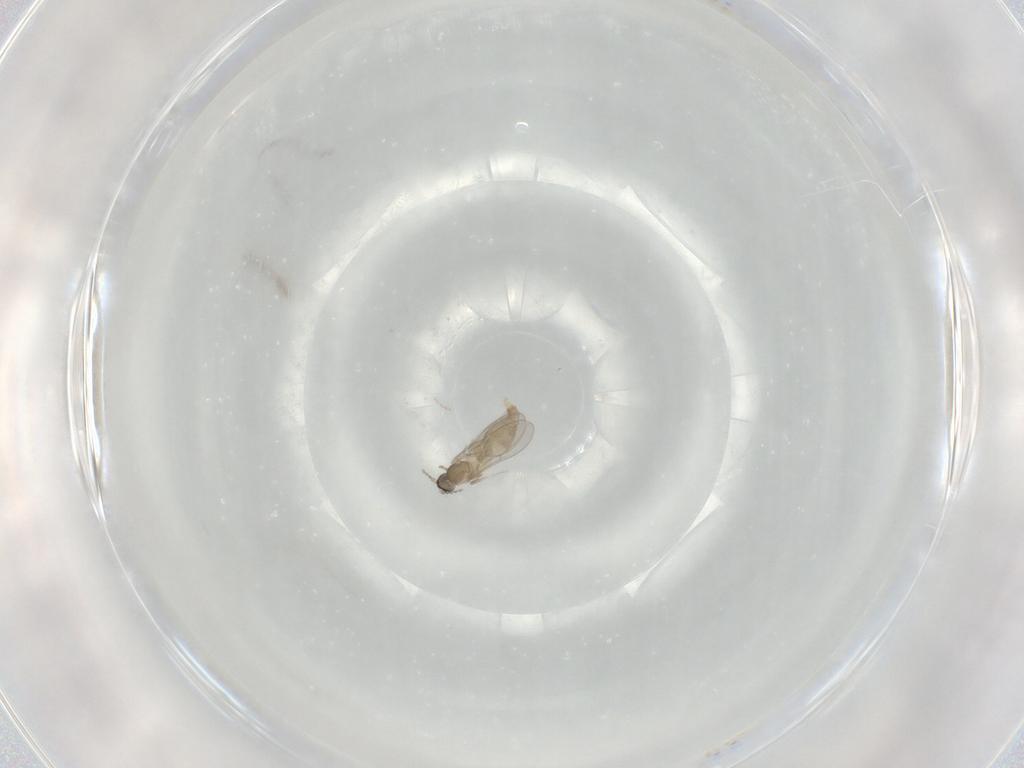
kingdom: Animalia
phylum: Arthropoda
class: Insecta
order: Diptera
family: Cecidomyiidae
